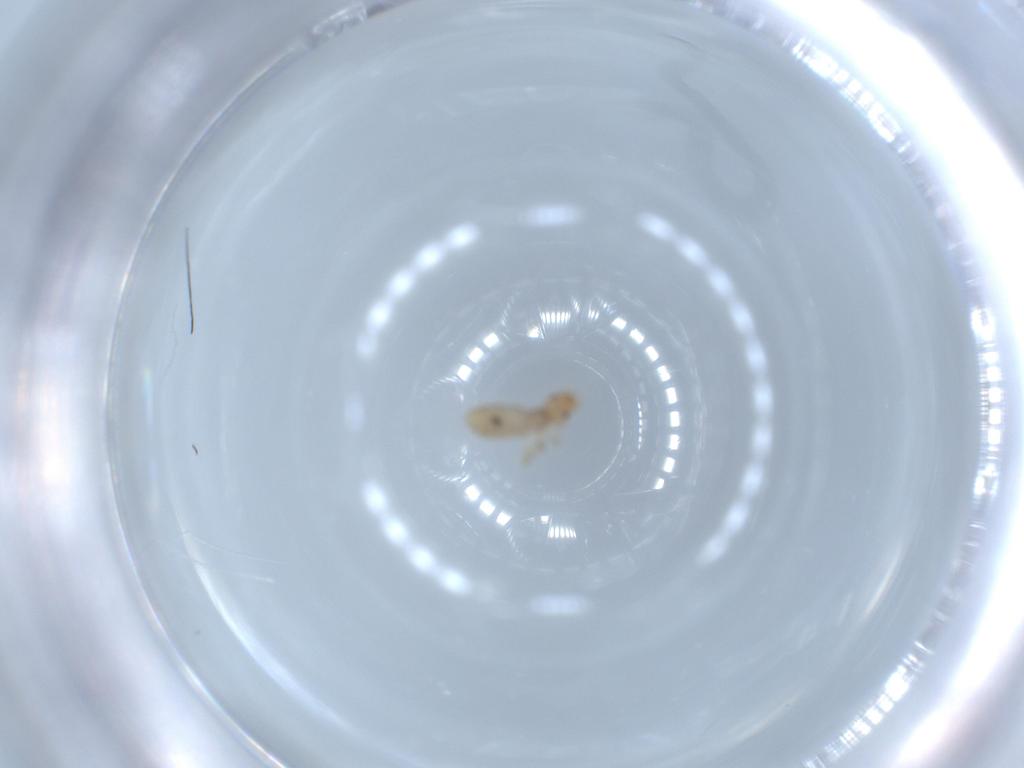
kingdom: Animalia
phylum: Arthropoda
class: Insecta
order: Psocodea
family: Liposcelididae
